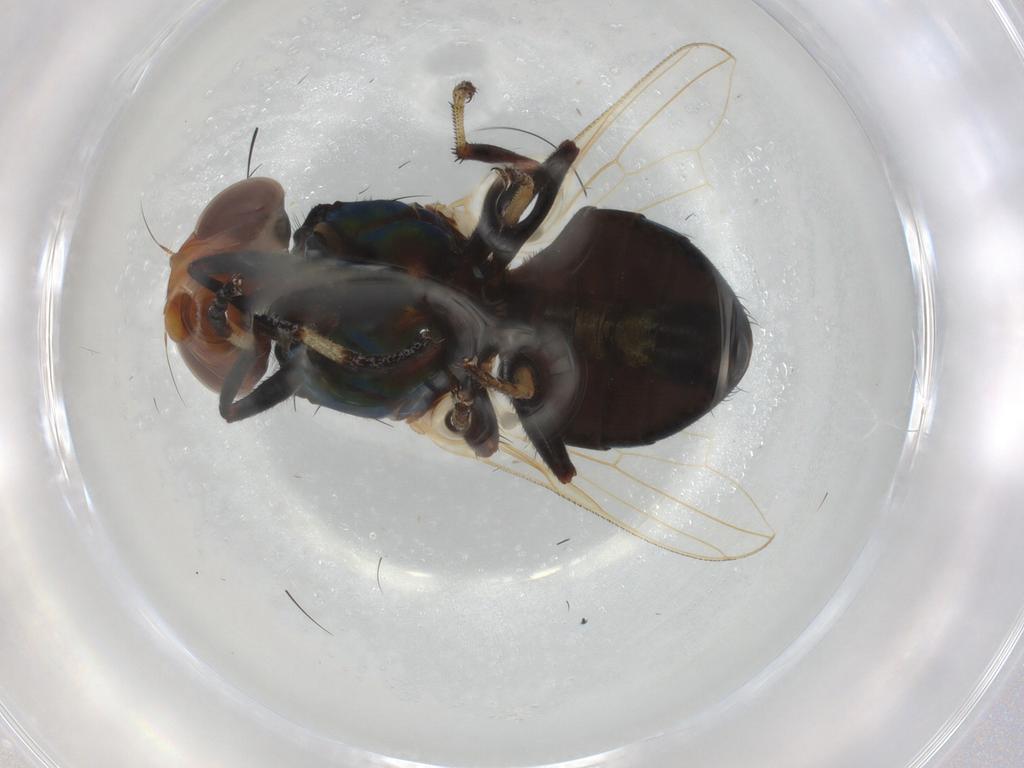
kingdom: Animalia
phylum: Arthropoda
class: Insecta
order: Diptera
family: Ulidiidae
